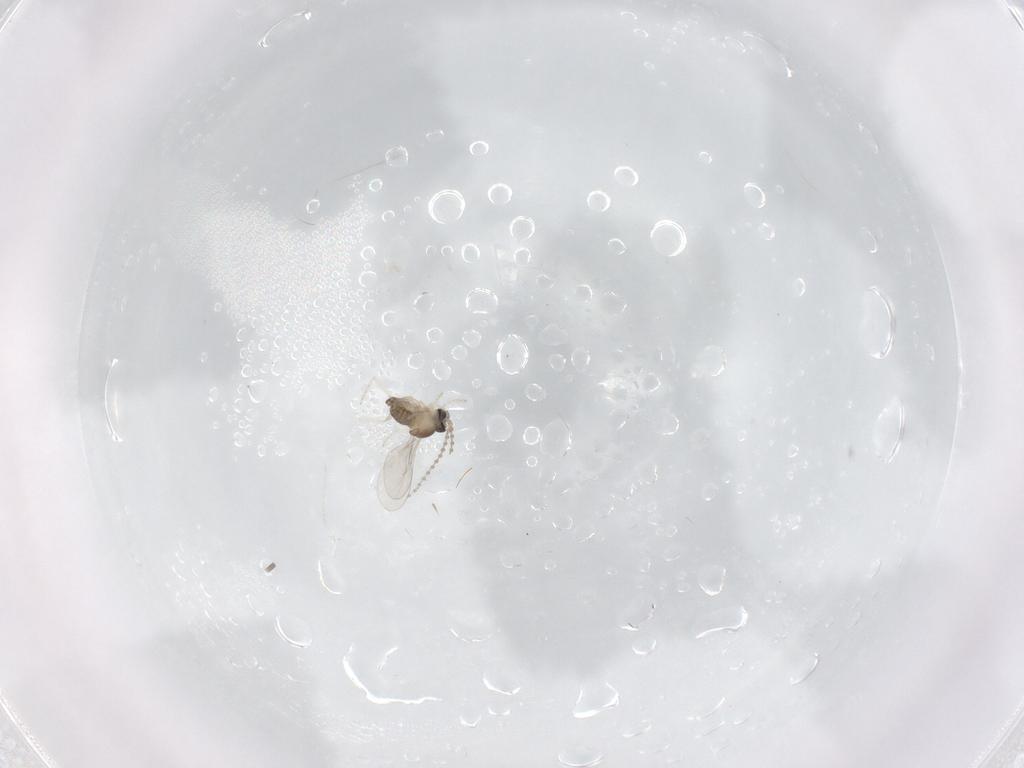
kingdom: Animalia
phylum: Arthropoda
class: Insecta
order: Diptera
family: Cecidomyiidae
